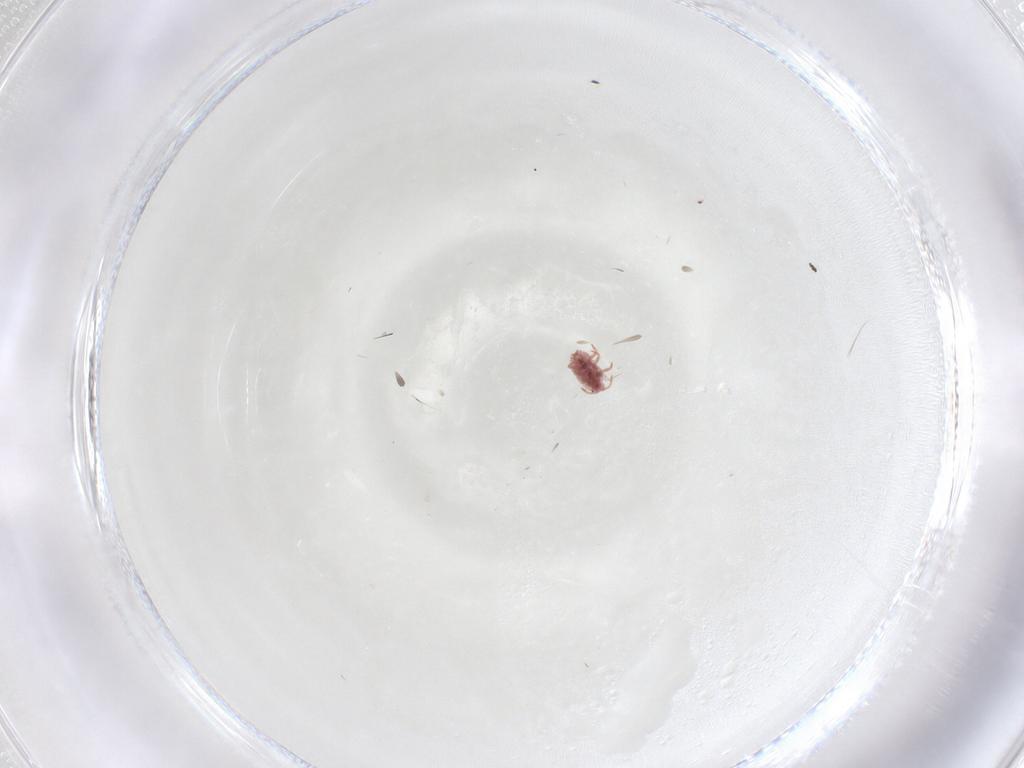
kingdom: Animalia
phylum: Arthropoda
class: Insecta
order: Hemiptera
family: Pseudococcidae
